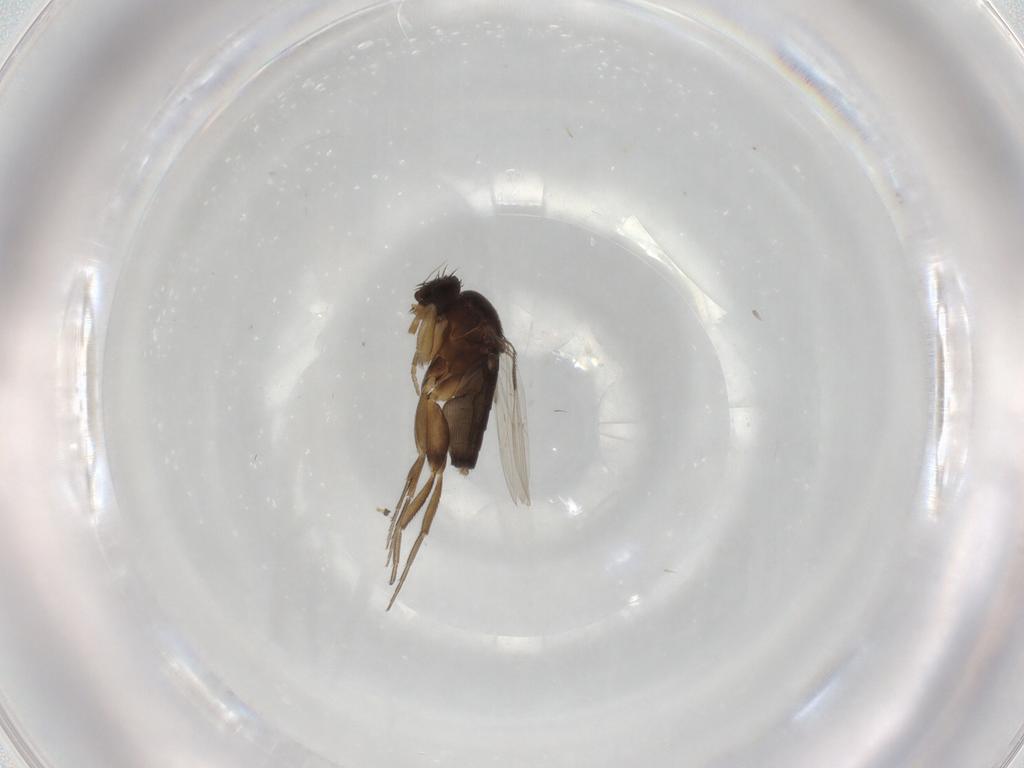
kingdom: Animalia
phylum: Arthropoda
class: Insecta
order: Diptera
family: Phoridae
